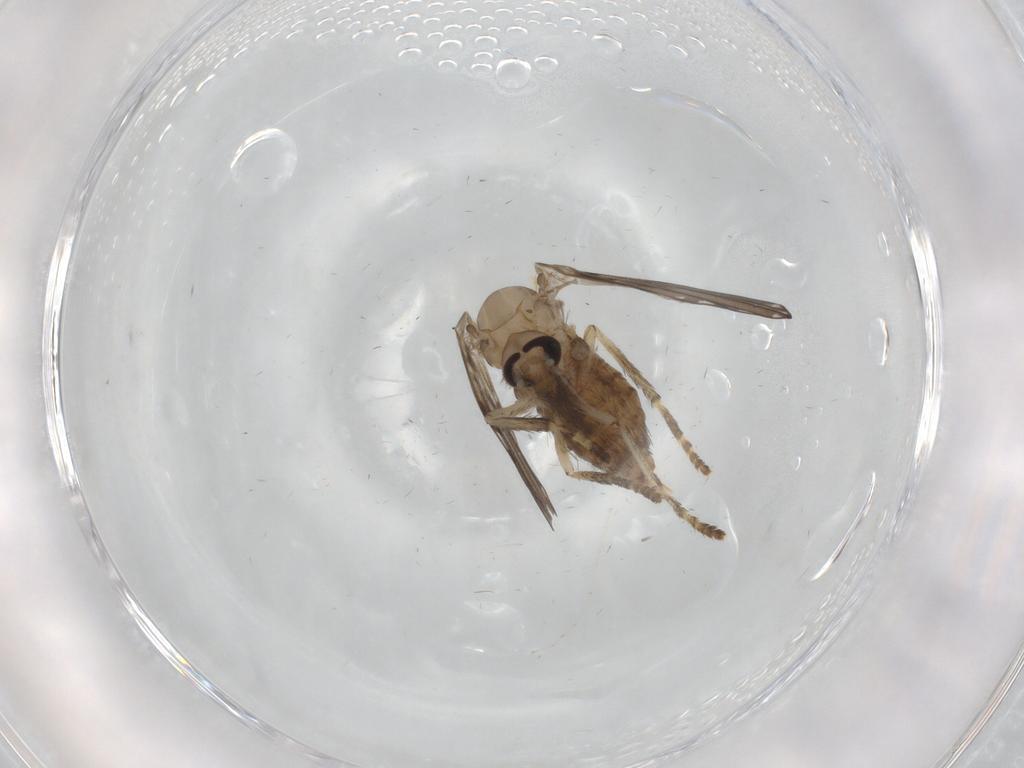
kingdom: Animalia
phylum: Arthropoda
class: Insecta
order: Diptera
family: Psychodidae
